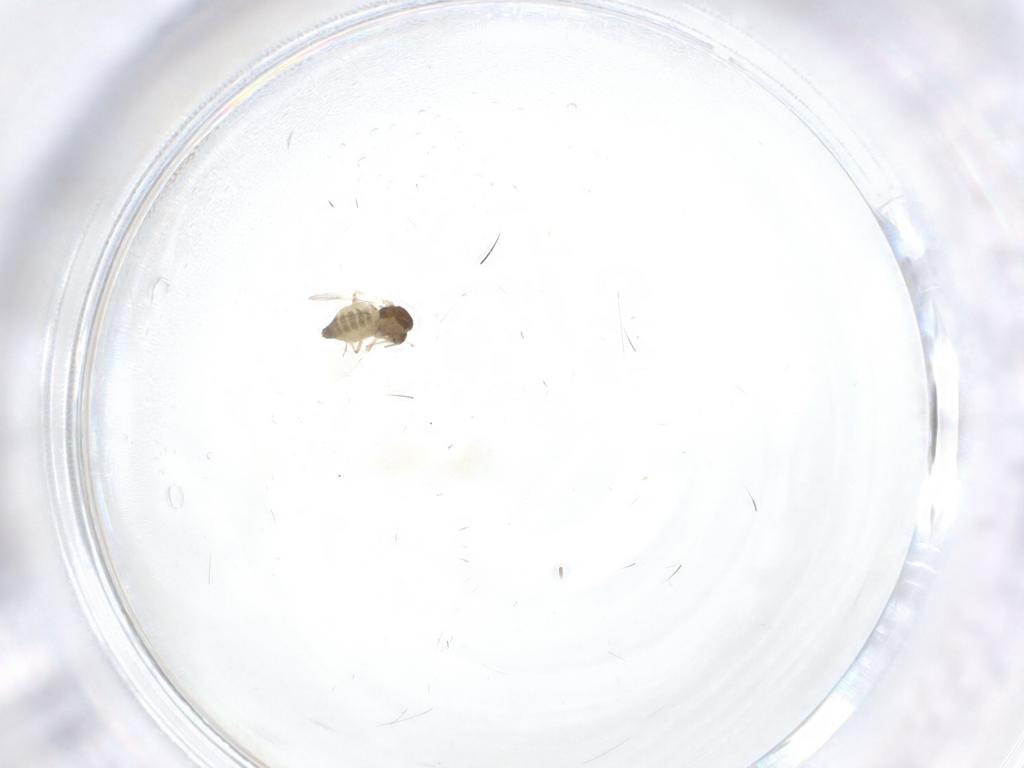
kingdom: Animalia
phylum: Arthropoda
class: Insecta
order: Diptera
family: Chironomidae
